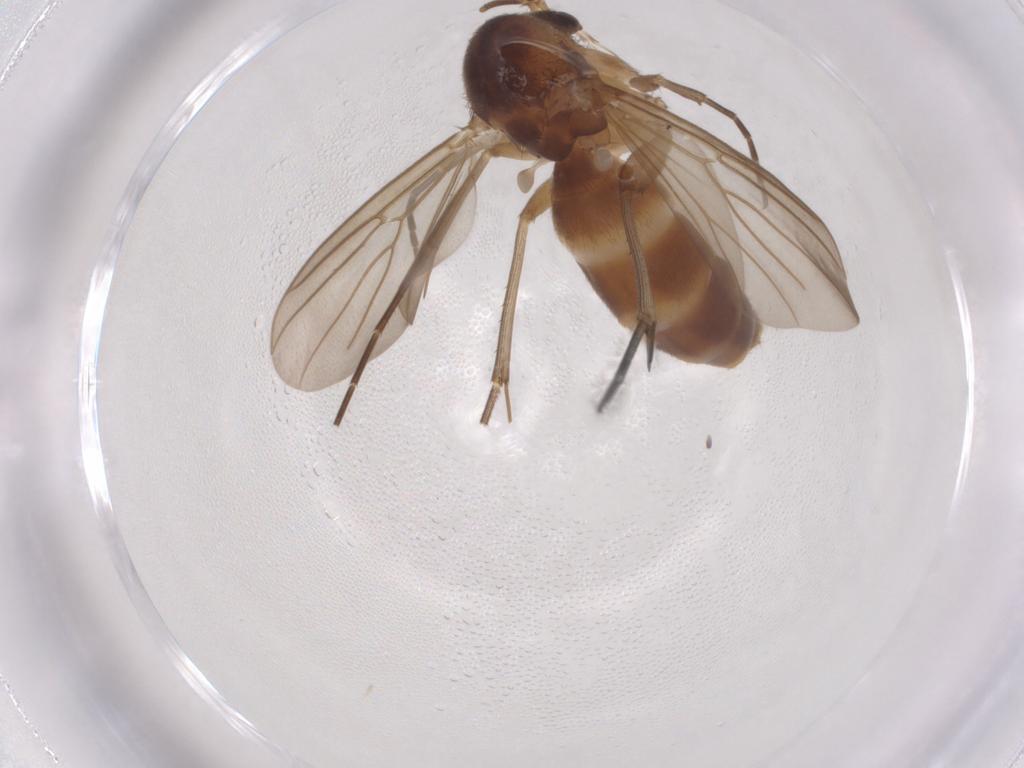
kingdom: Animalia
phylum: Arthropoda
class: Insecta
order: Diptera
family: Mycetophilidae
